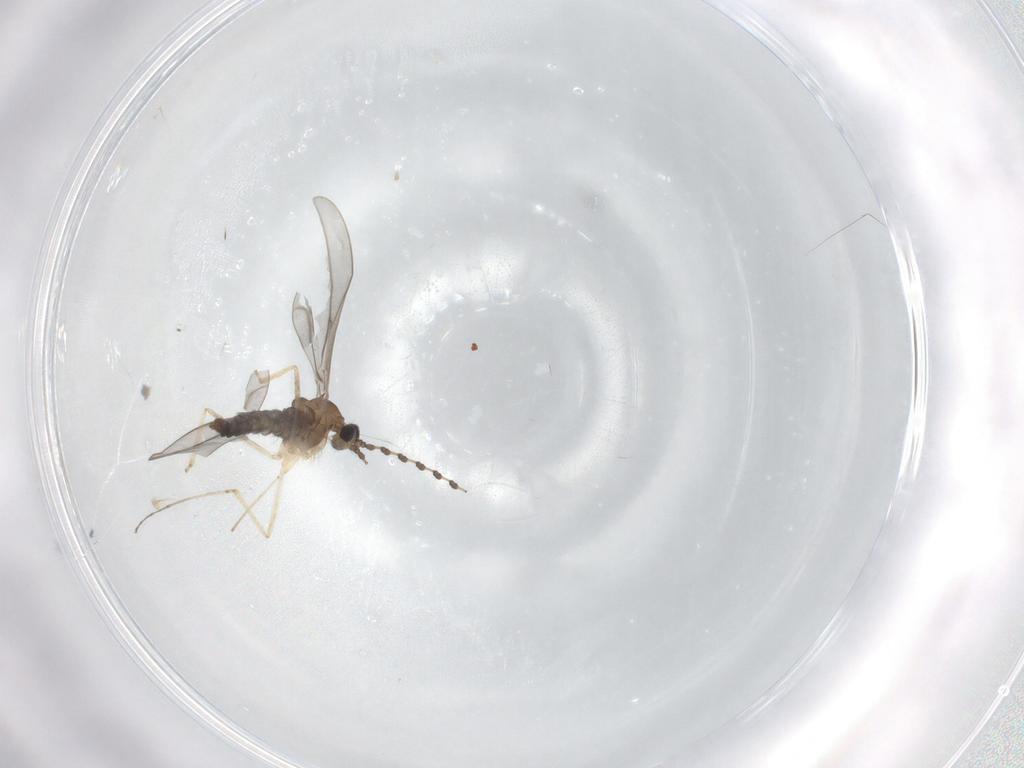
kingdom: Animalia
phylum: Arthropoda
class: Insecta
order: Diptera
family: Cecidomyiidae
